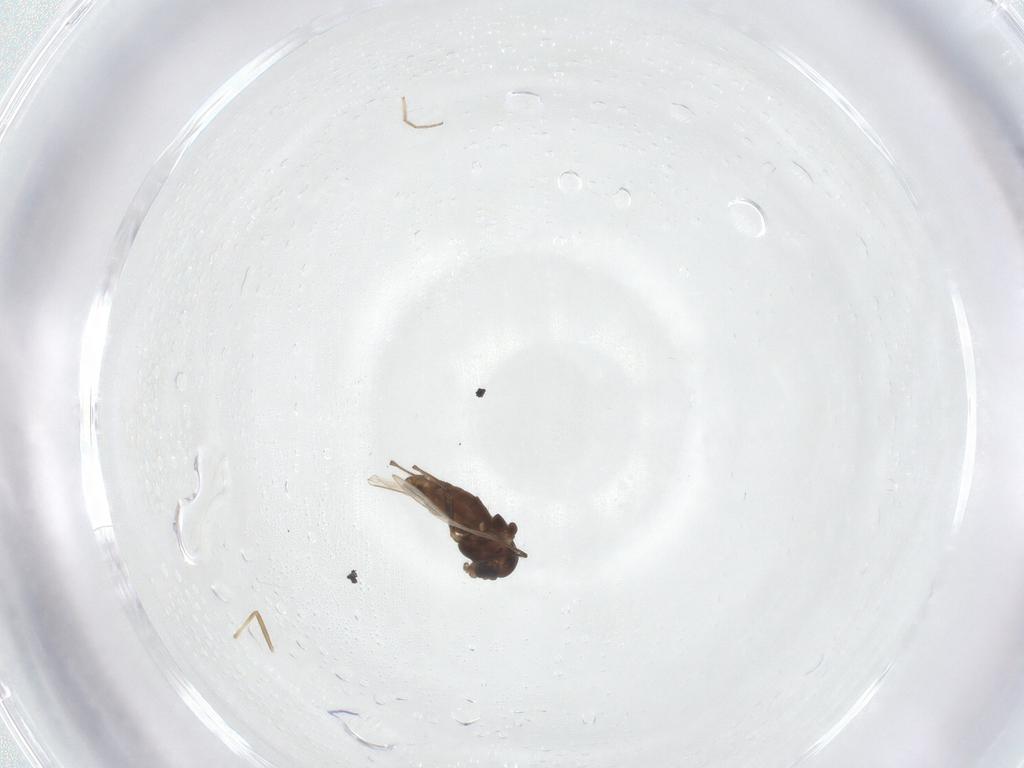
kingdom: Animalia
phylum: Arthropoda
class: Insecta
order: Diptera
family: Chironomidae
